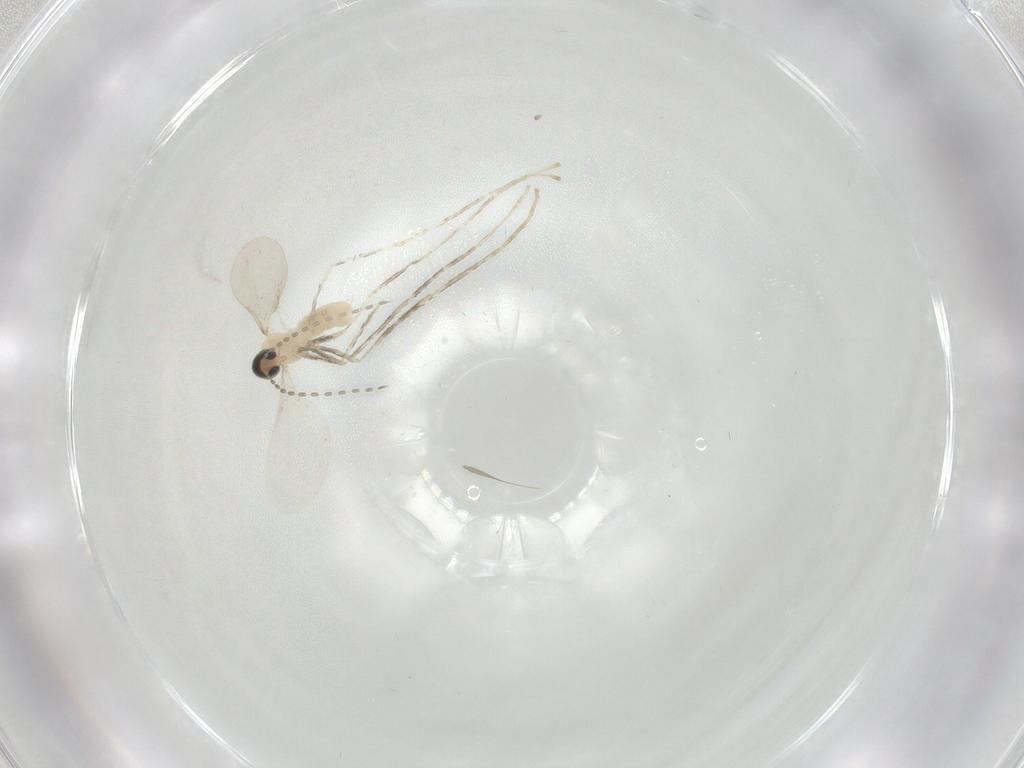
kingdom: Animalia
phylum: Arthropoda
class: Insecta
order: Diptera
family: Cecidomyiidae
